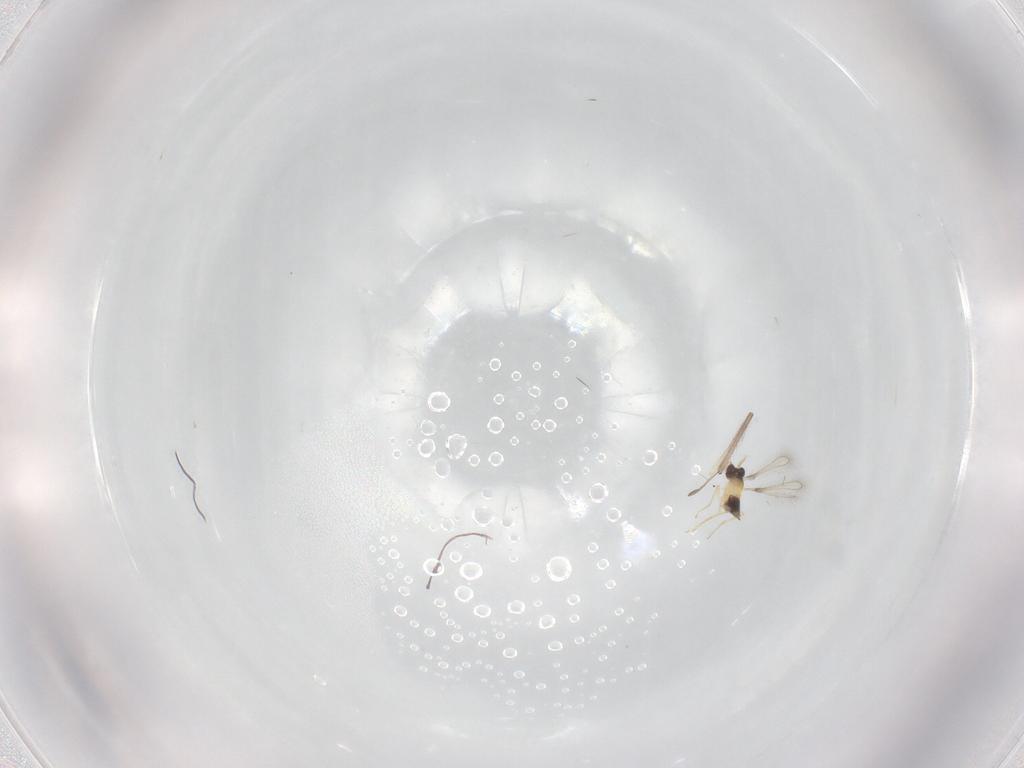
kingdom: Animalia
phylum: Arthropoda
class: Insecta
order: Hymenoptera
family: Mymaridae
